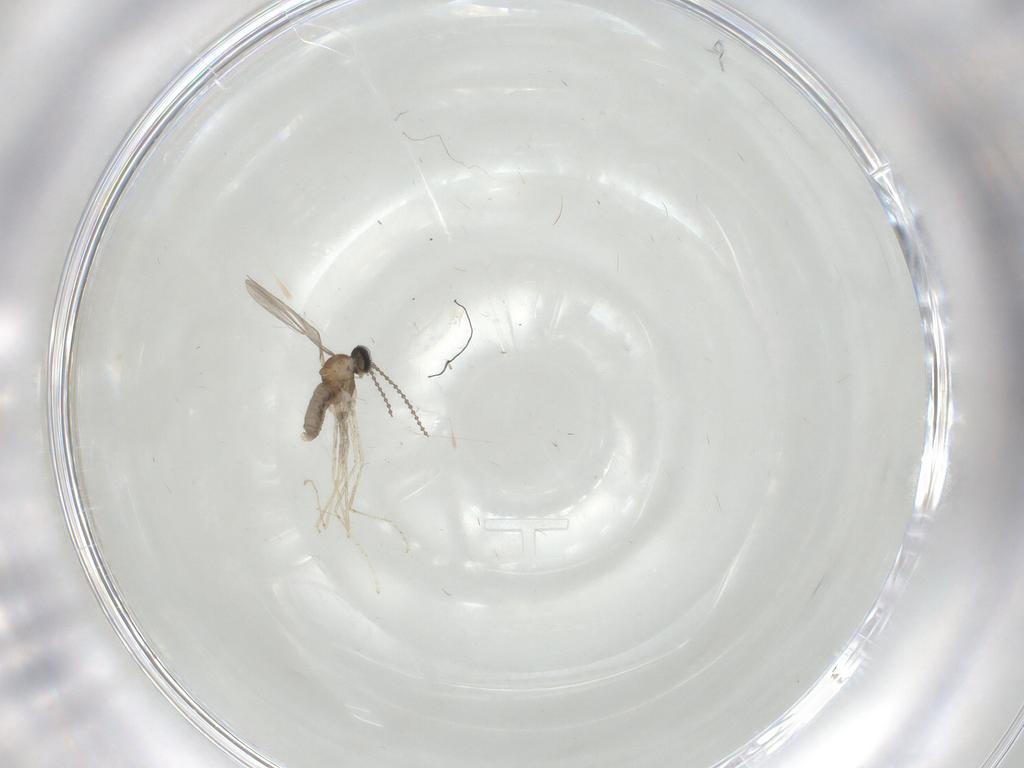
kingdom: Animalia
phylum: Arthropoda
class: Insecta
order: Diptera
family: Cecidomyiidae
